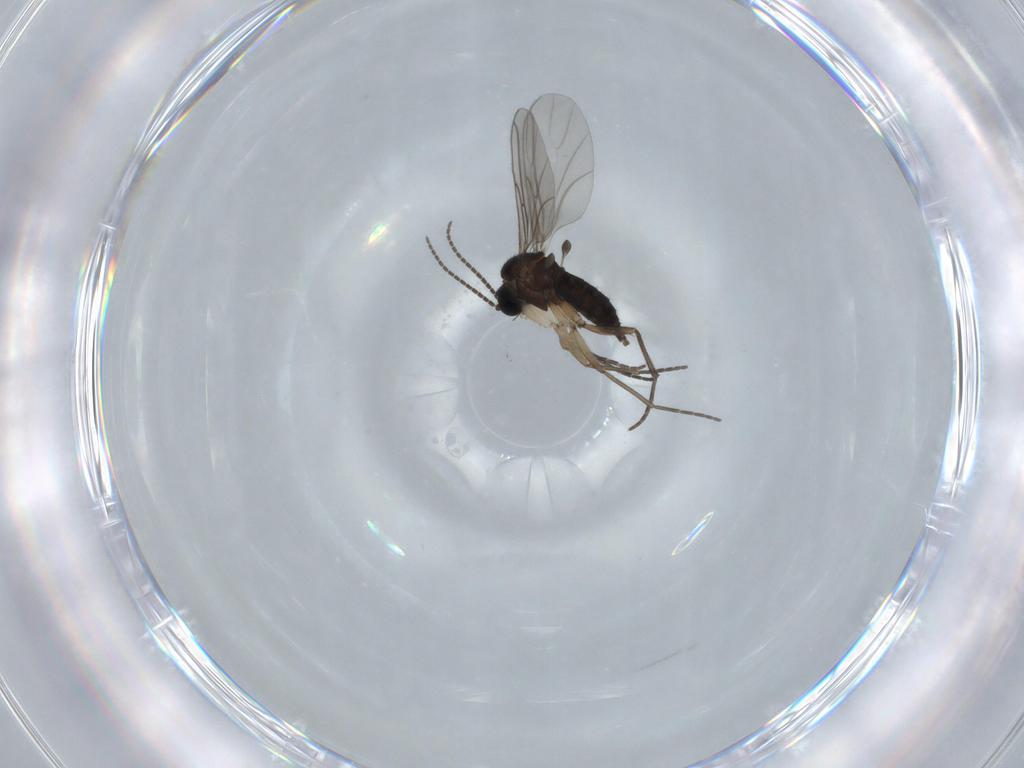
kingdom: Animalia
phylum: Arthropoda
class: Insecta
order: Diptera
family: Sciaridae
